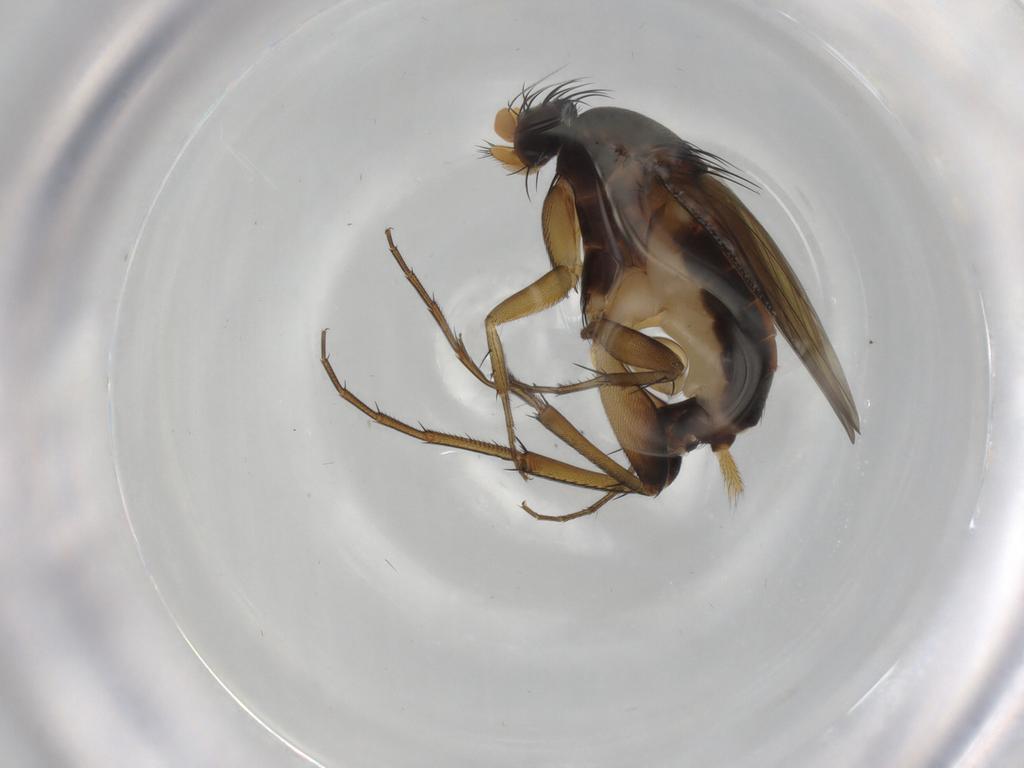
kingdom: Animalia
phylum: Arthropoda
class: Insecta
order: Diptera
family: Phoridae
